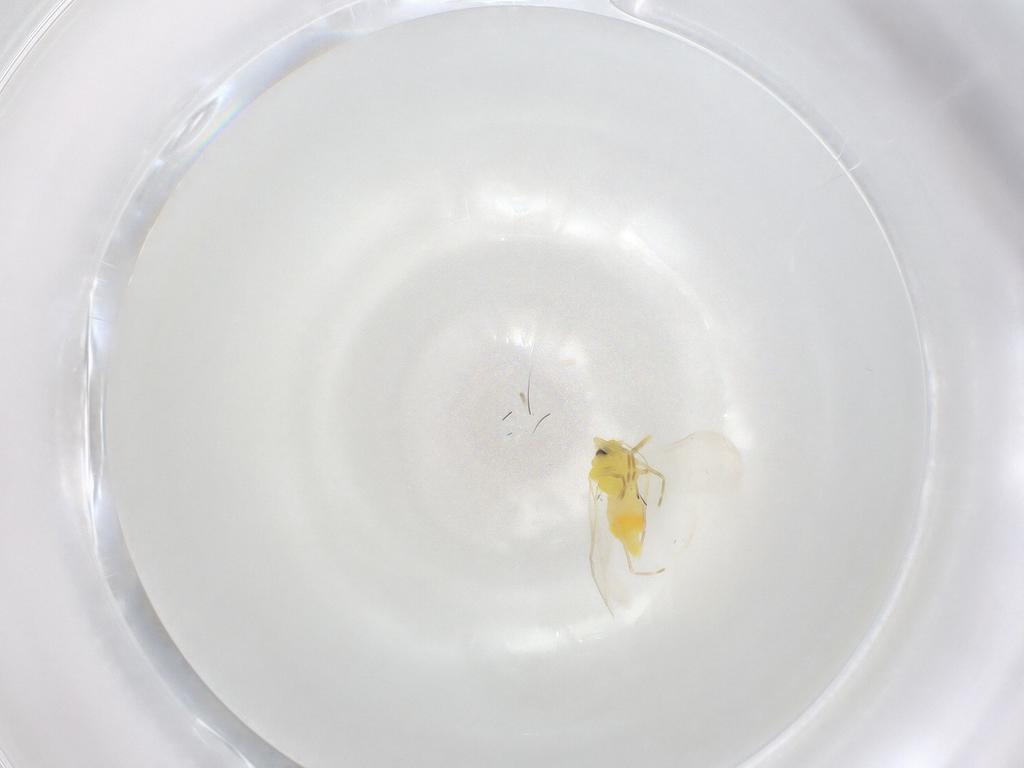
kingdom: Animalia
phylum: Arthropoda
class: Insecta
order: Hemiptera
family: Aleyrodidae
